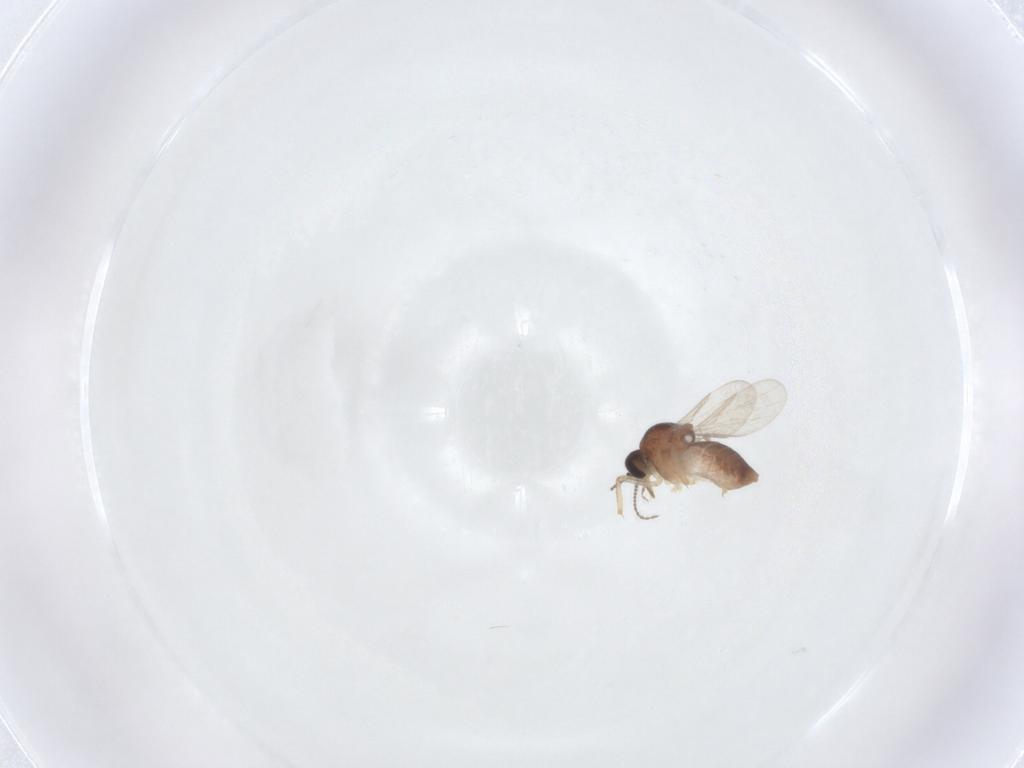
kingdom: Animalia
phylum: Arthropoda
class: Insecta
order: Diptera
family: Ceratopogonidae
